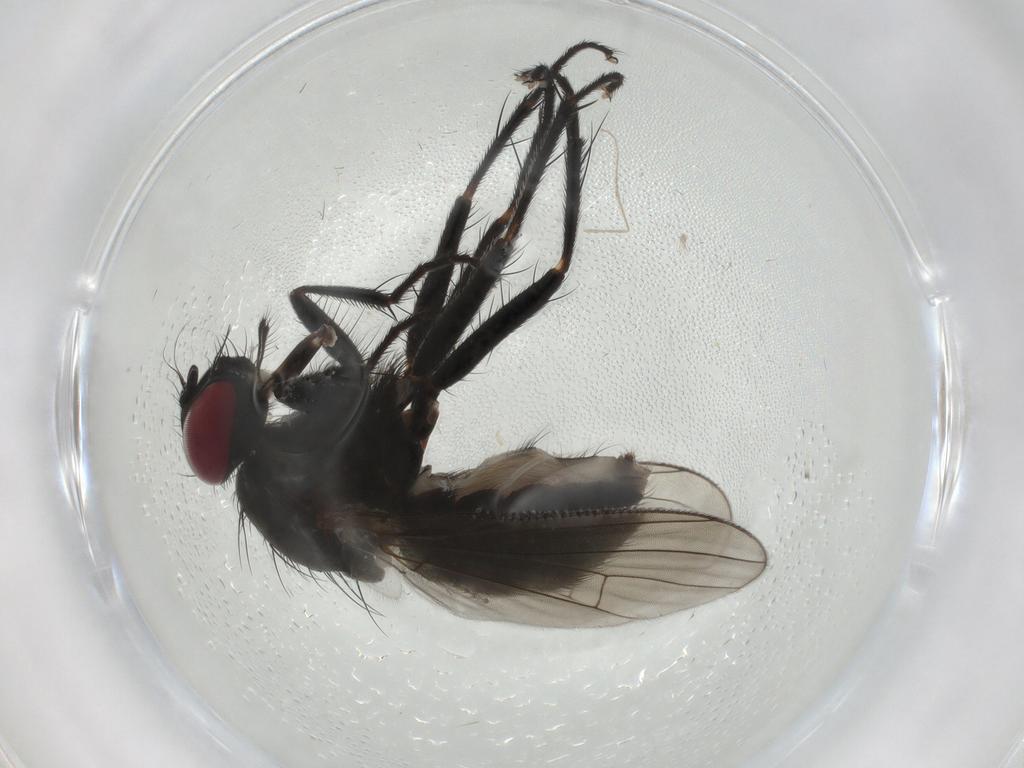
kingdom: Animalia
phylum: Arthropoda
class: Insecta
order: Diptera
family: Muscidae
